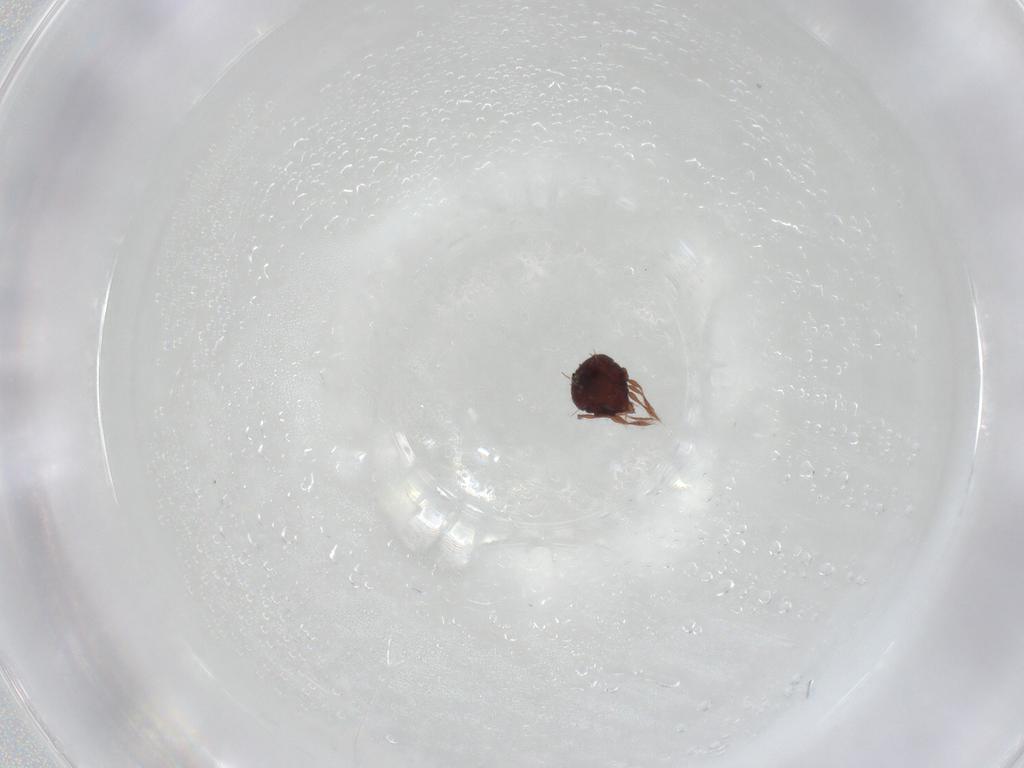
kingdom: Animalia
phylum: Arthropoda
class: Arachnida
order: Sarcoptiformes
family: Caloppiidae
